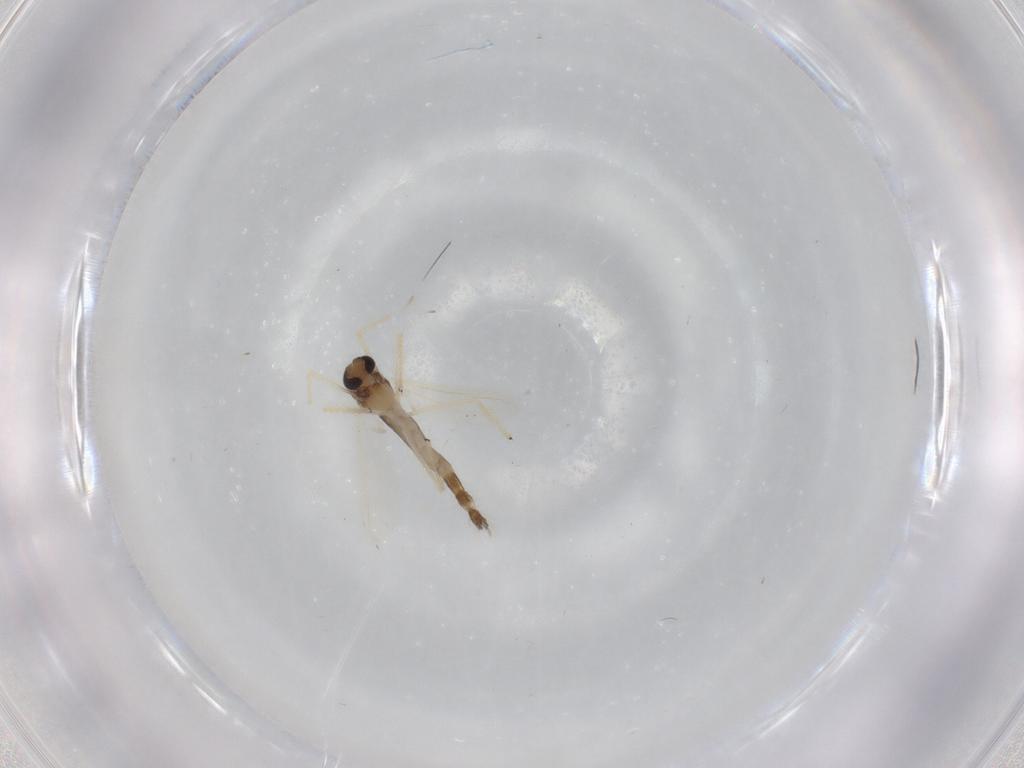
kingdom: Animalia
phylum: Arthropoda
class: Insecta
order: Diptera
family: Chironomidae
